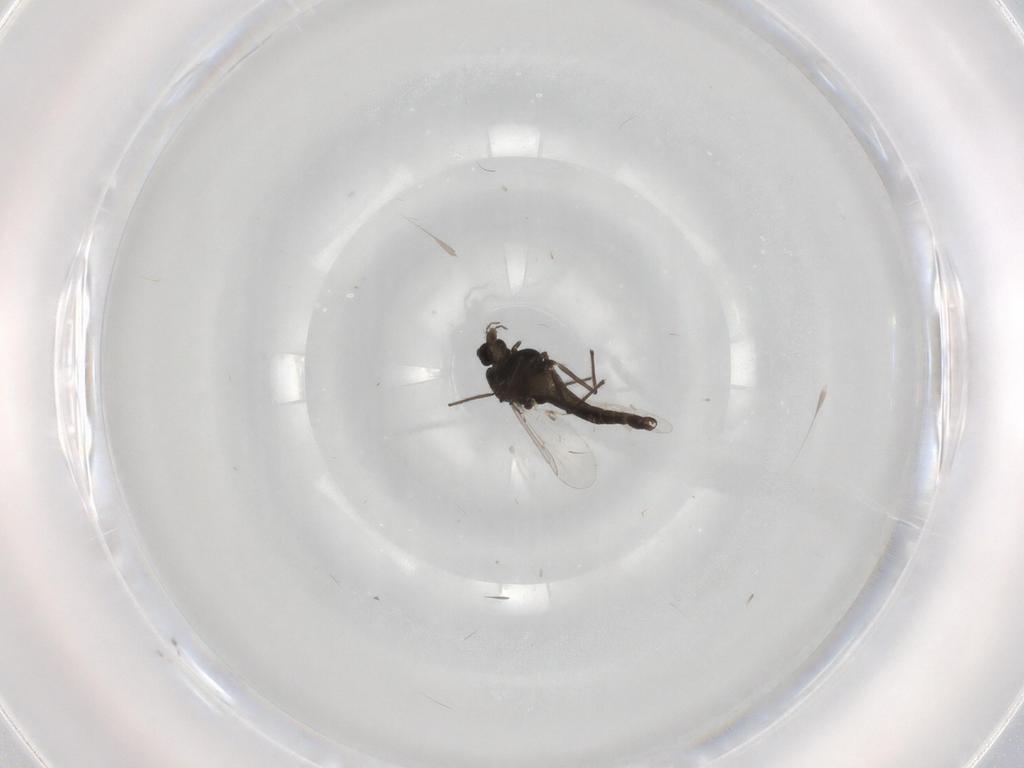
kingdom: Animalia
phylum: Arthropoda
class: Insecta
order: Diptera
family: Chironomidae
